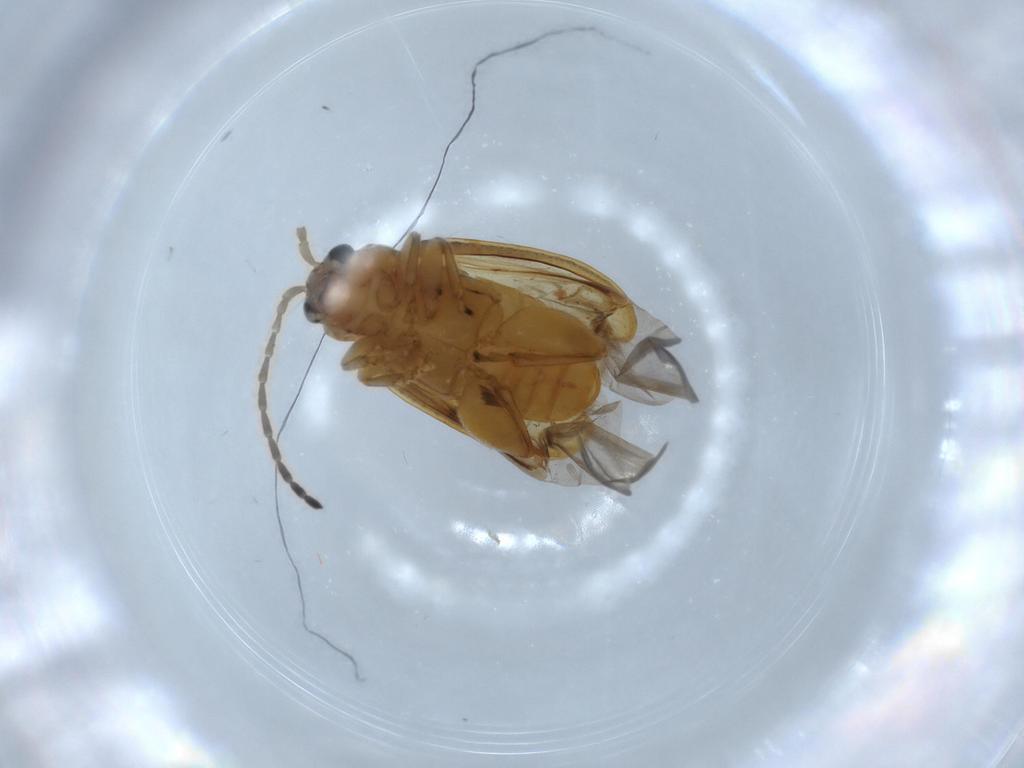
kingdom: Animalia
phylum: Arthropoda
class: Insecta
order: Coleoptera
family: Chrysomelidae
